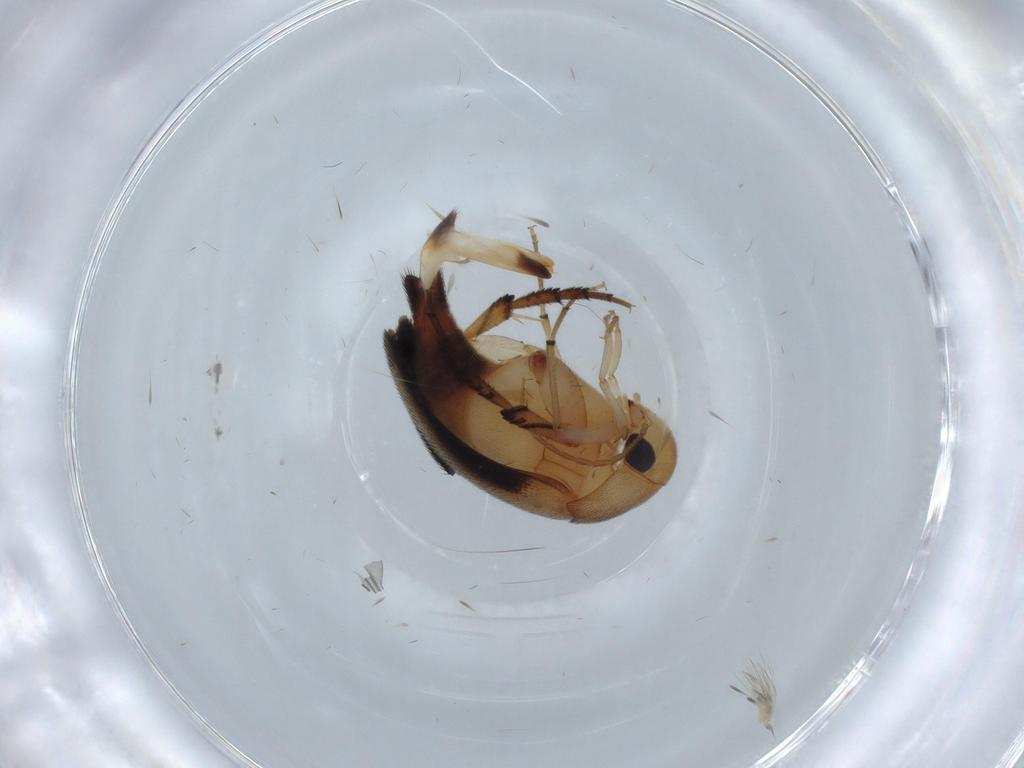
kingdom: Animalia
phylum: Arthropoda
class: Insecta
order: Coleoptera
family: Mordellidae
